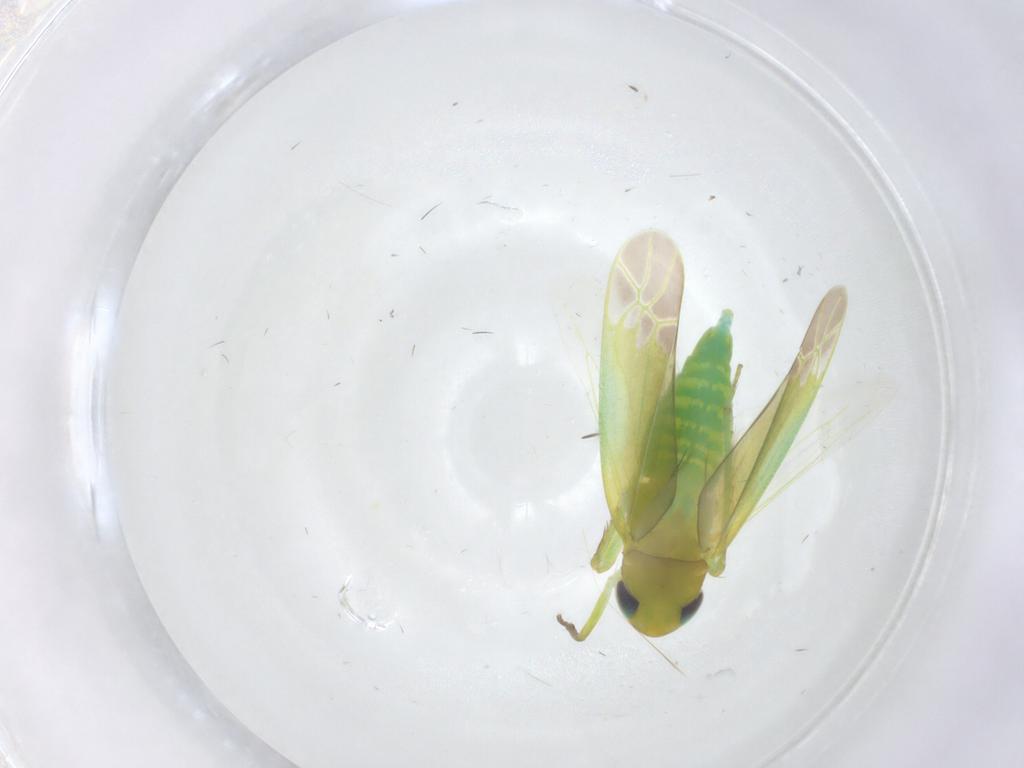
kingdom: Animalia
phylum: Arthropoda
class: Insecta
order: Hemiptera
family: Cicadellidae
